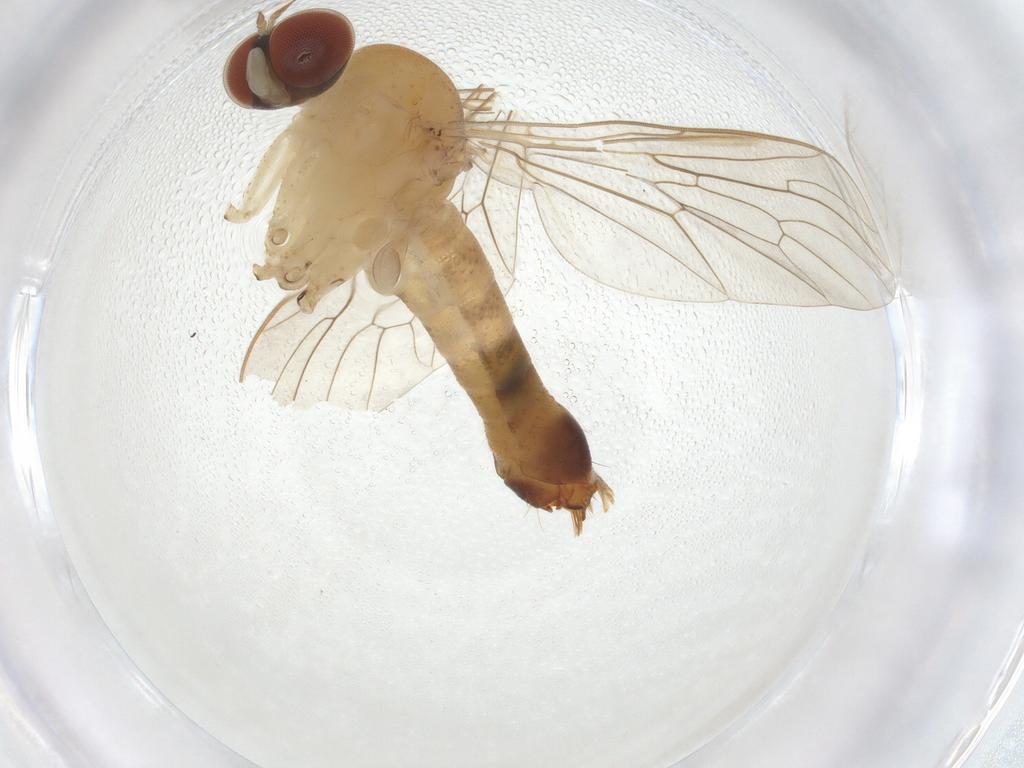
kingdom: Animalia
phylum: Arthropoda
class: Insecta
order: Diptera
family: Apsilocephalidae
